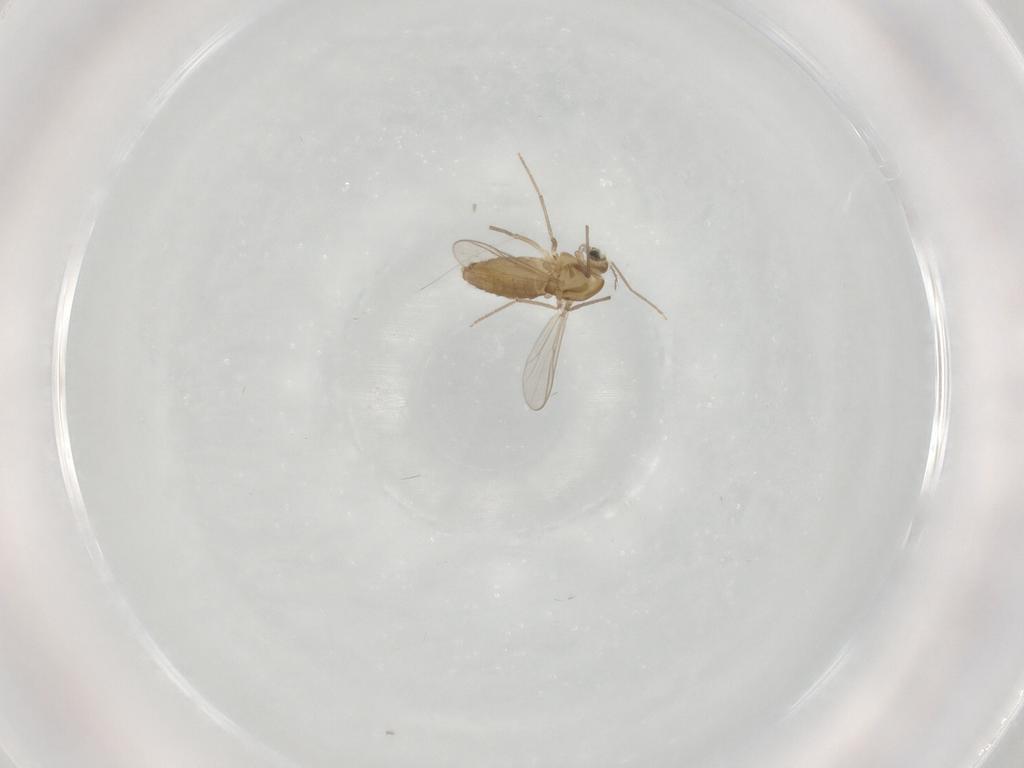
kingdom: Animalia
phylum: Arthropoda
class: Insecta
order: Diptera
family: Chironomidae
